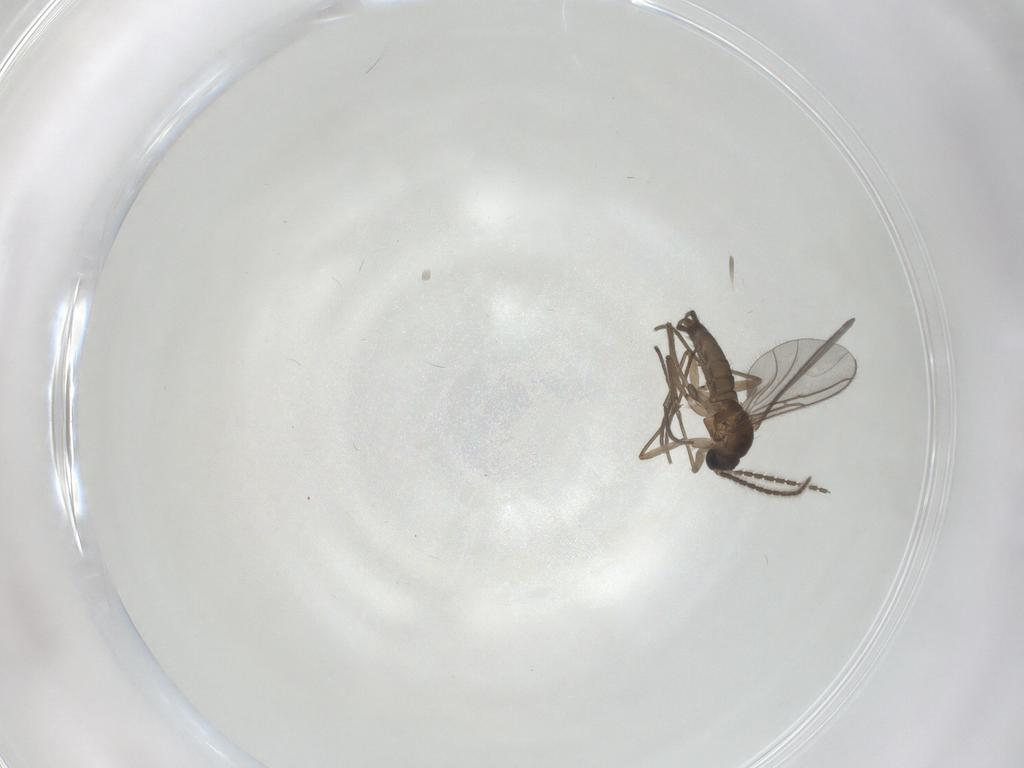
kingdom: Animalia
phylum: Arthropoda
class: Insecta
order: Diptera
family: Sciaridae
